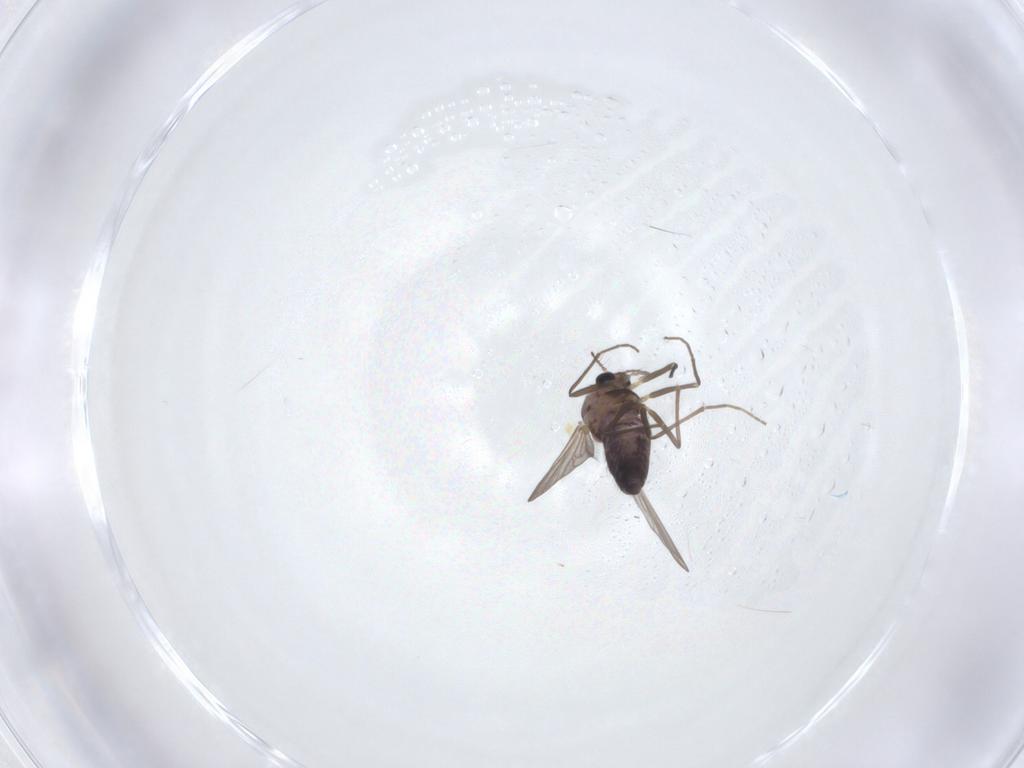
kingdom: Animalia
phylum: Arthropoda
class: Insecta
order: Diptera
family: Chironomidae
